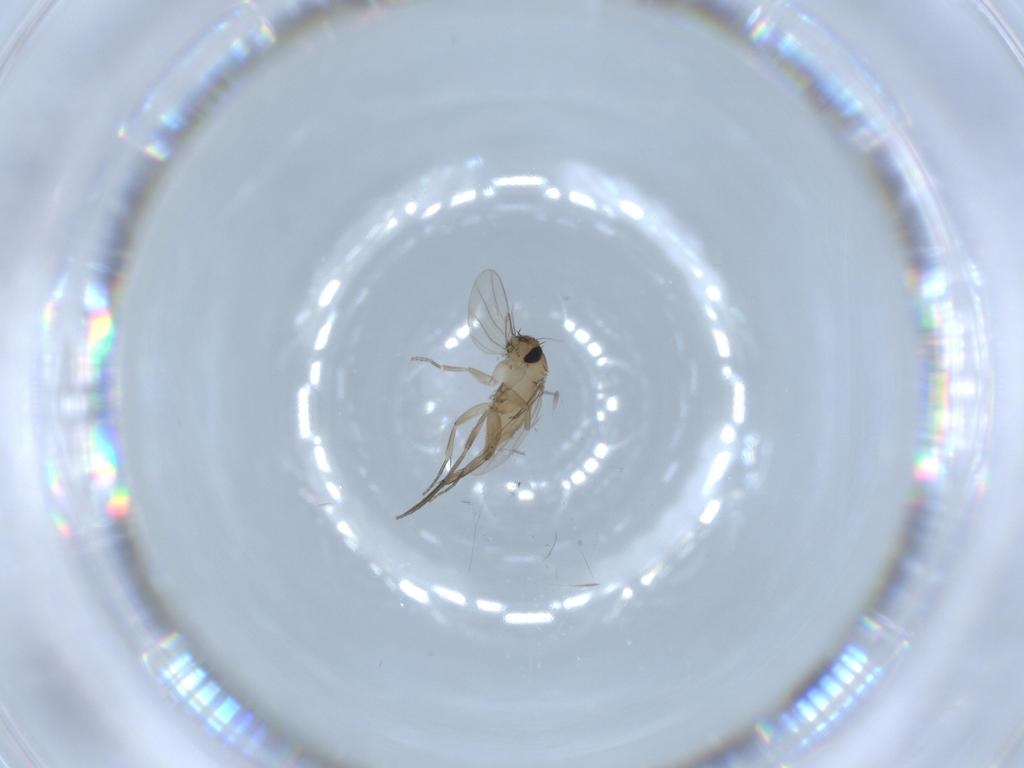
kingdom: Animalia
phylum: Arthropoda
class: Insecta
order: Diptera
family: Phoridae
